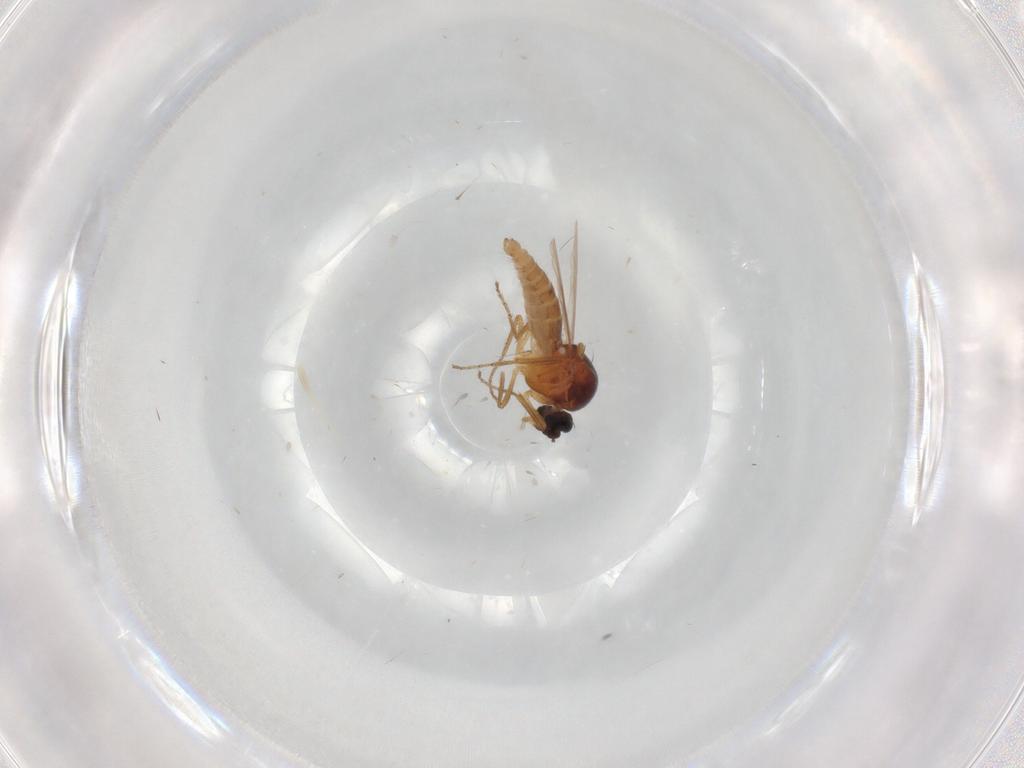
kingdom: Animalia
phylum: Arthropoda
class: Insecta
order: Diptera
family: Ceratopogonidae
